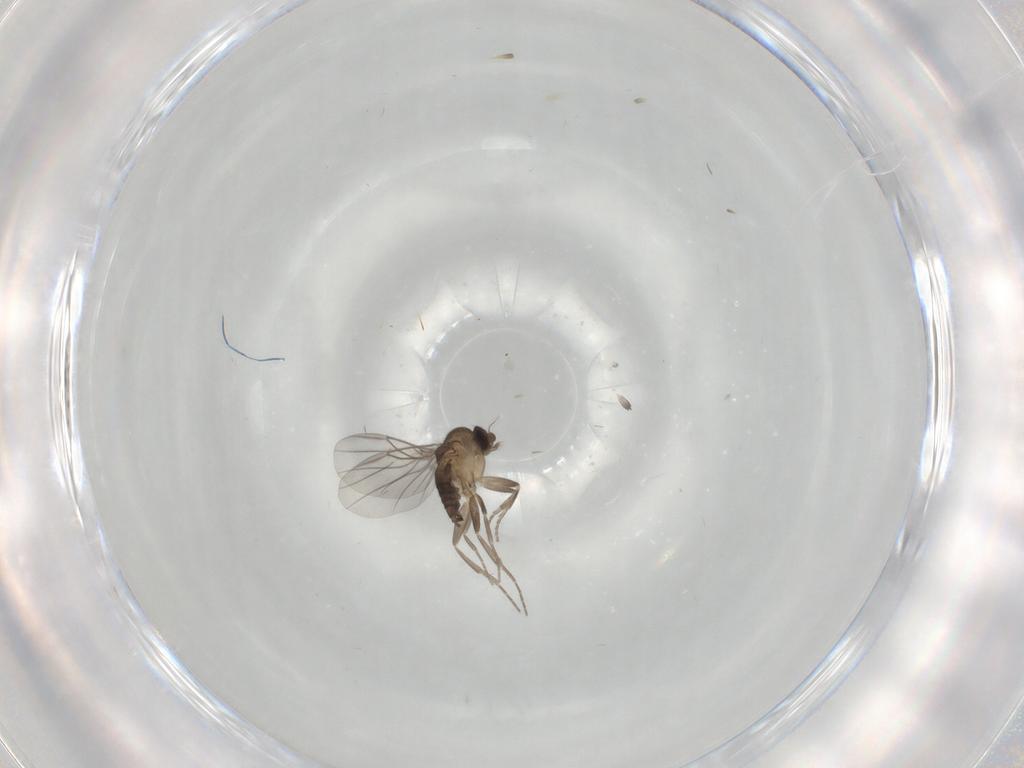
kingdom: Animalia
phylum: Arthropoda
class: Insecta
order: Diptera
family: Phoridae
